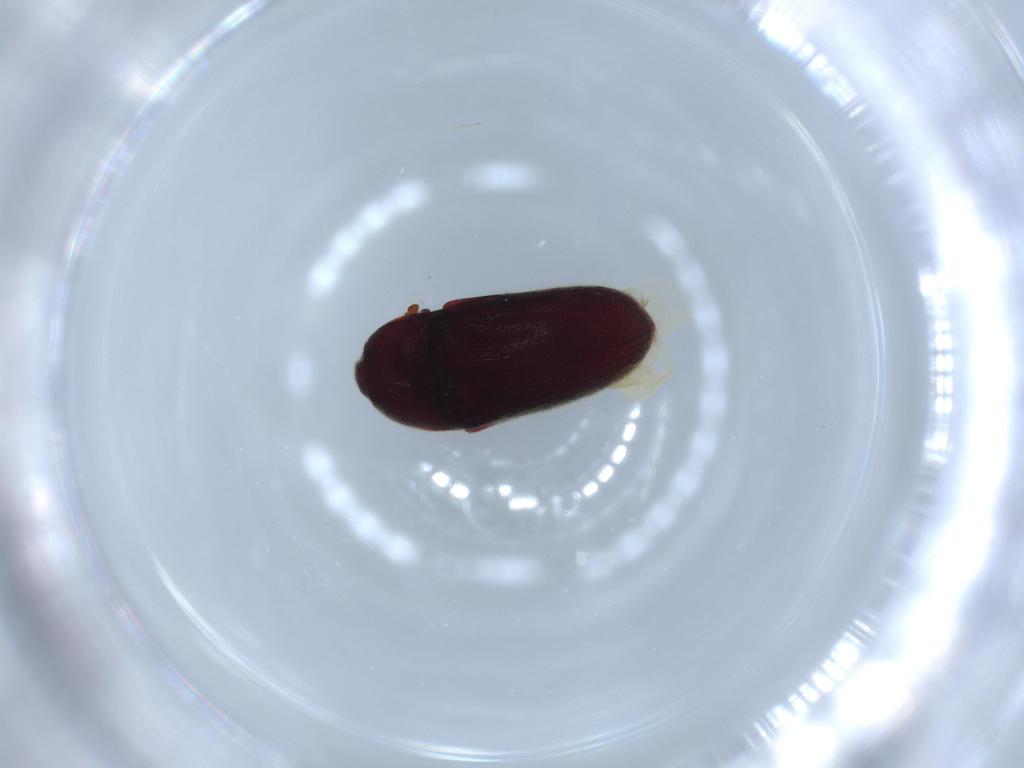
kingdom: Animalia
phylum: Arthropoda
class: Insecta
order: Coleoptera
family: Throscidae
